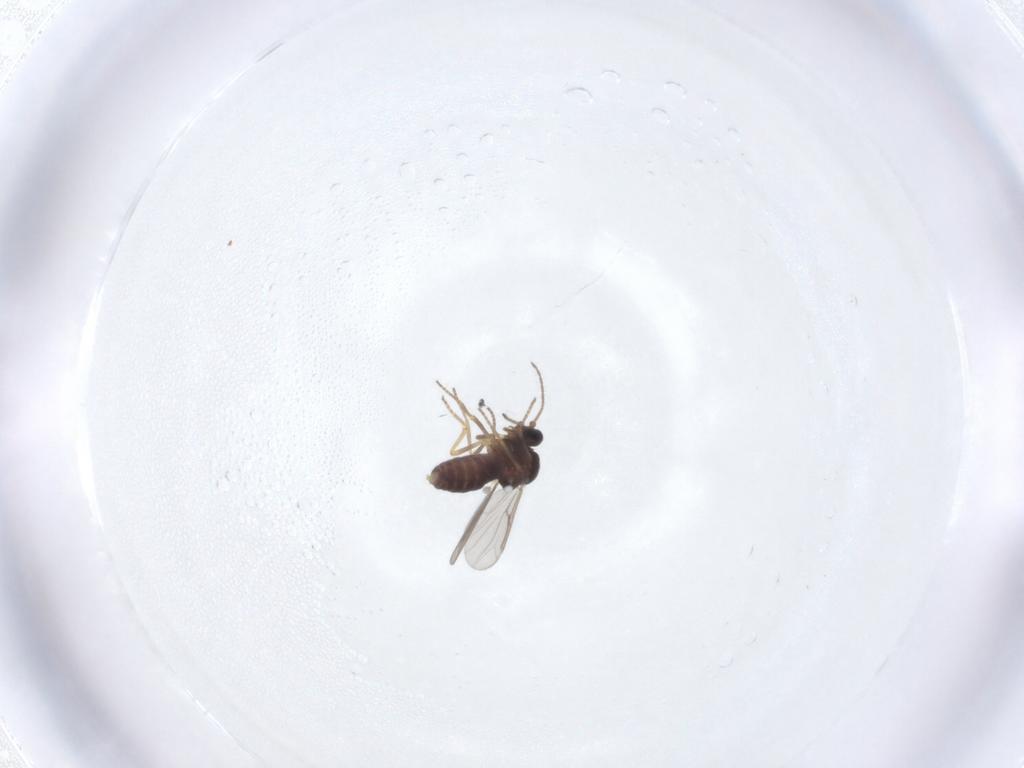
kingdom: Animalia
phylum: Arthropoda
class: Insecta
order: Diptera
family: Ceratopogonidae
